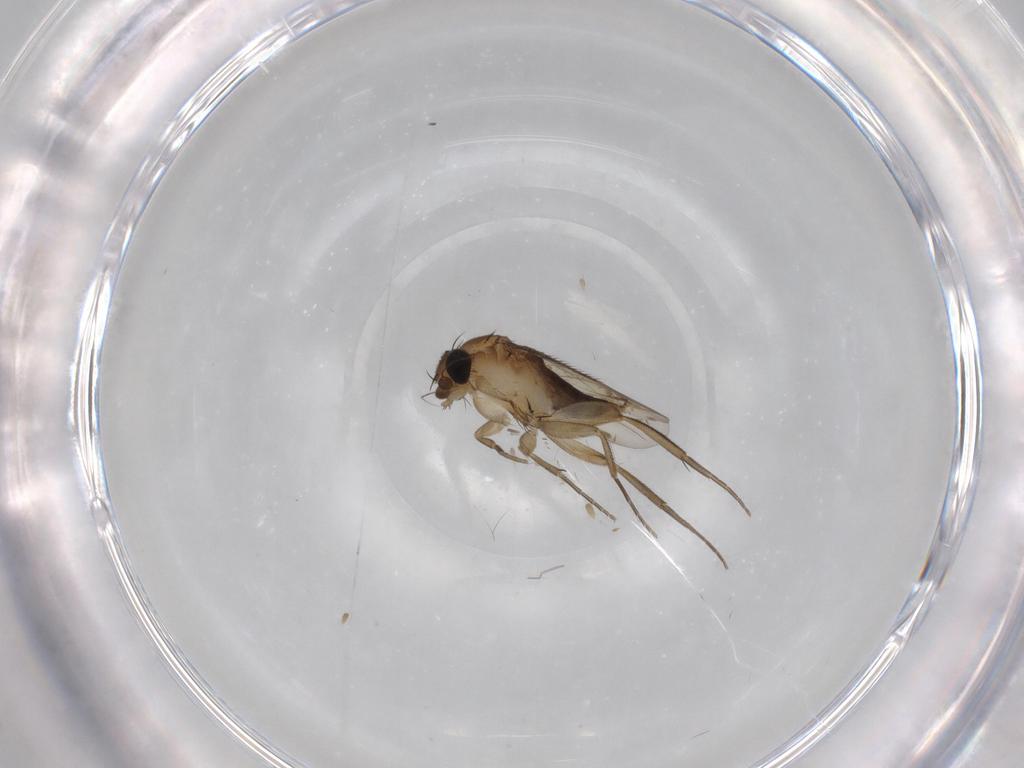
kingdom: Animalia
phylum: Arthropoda
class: Insecta
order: Diptera
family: Phoridae
